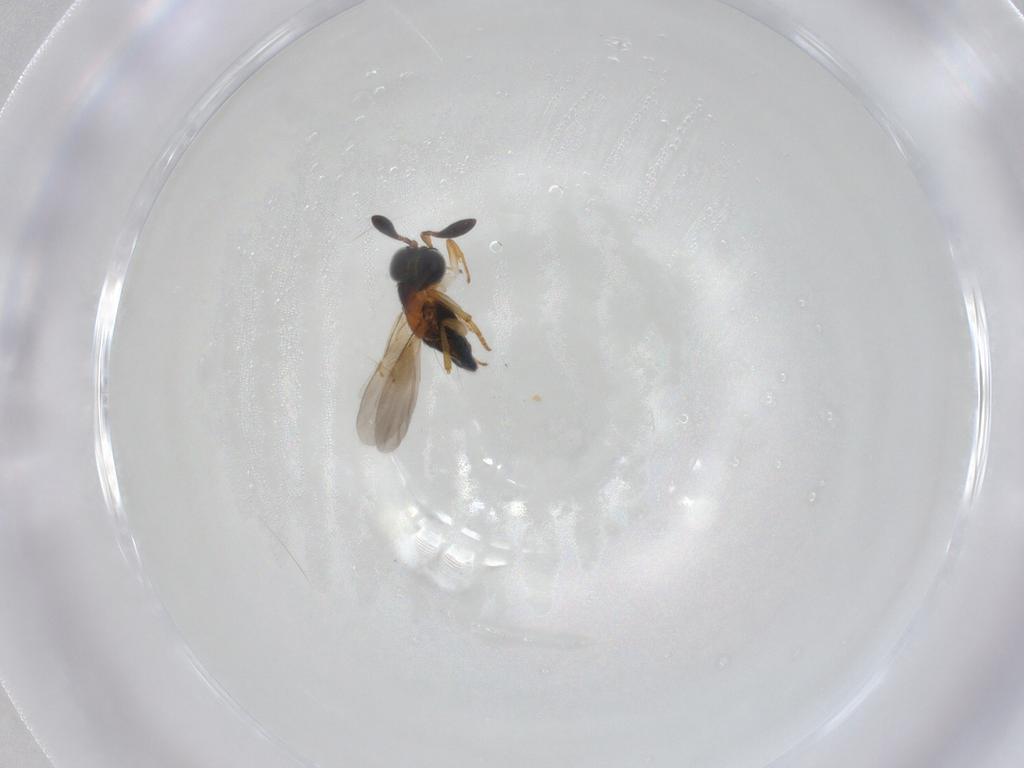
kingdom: Animalia
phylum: Arthropoda
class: Insecta
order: Hymenoptera
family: Encyrtidae
